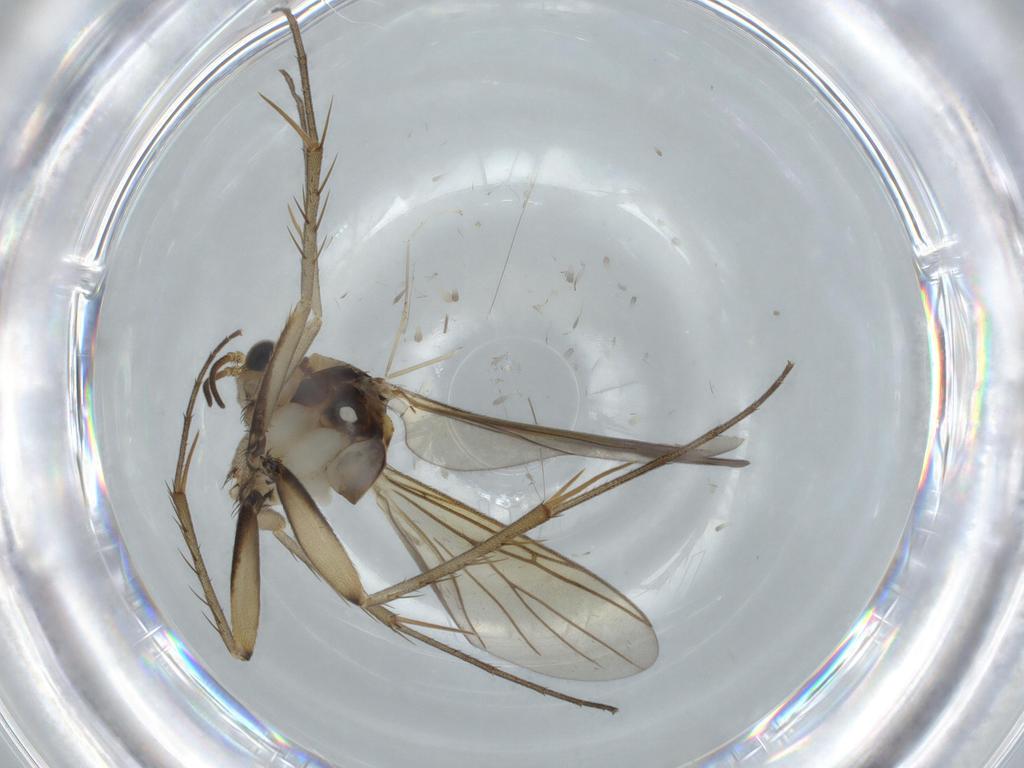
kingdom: Animalia
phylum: Arthropoda
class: Insecta
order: Diptera
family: Mycetophilidae
